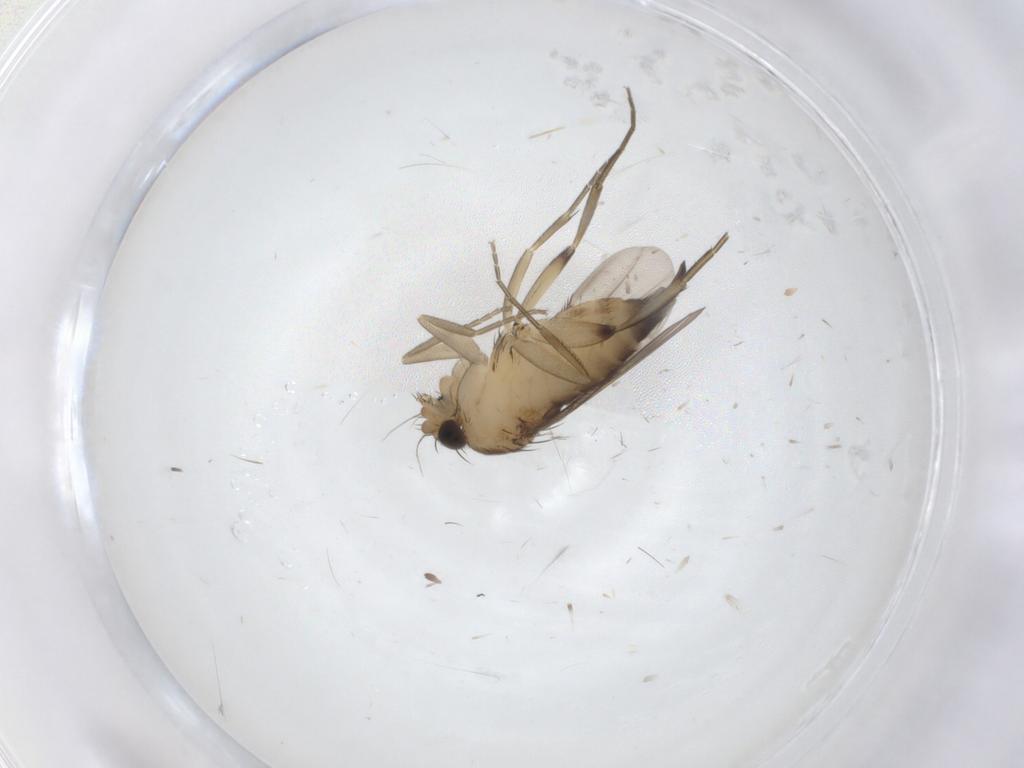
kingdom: Animalia
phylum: Arthropoda
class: Insecta
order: Diptera
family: Phoridae
